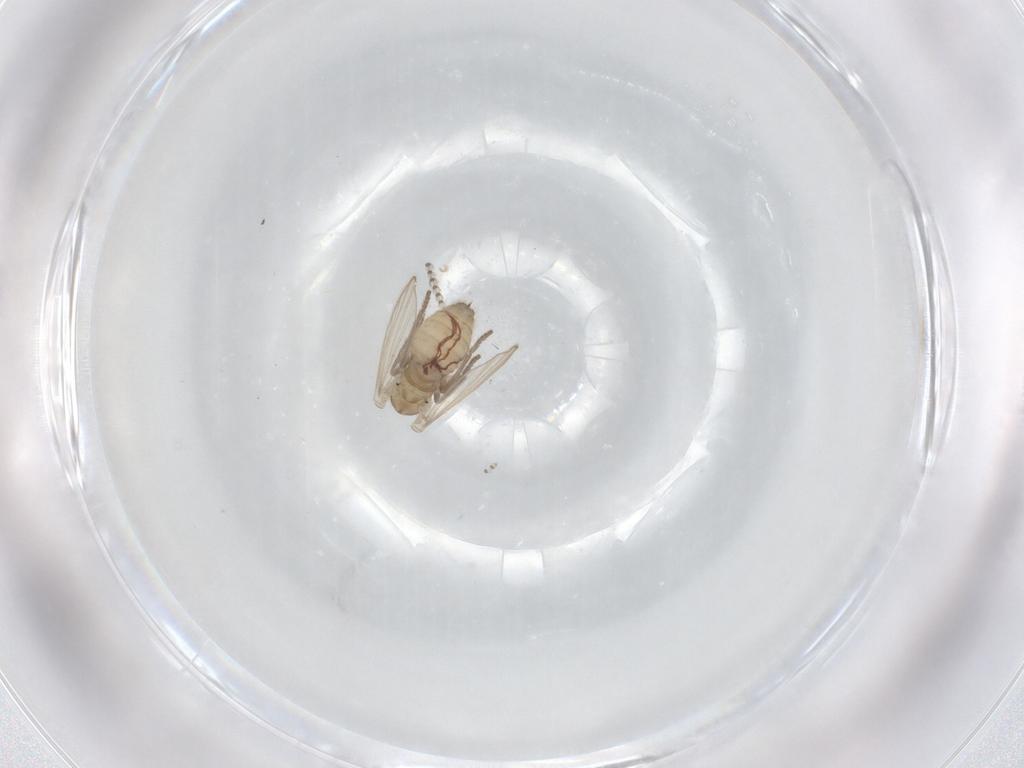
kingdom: Animalia
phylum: Arthropoda
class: Insecta
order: Diptera
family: Psychodidae
